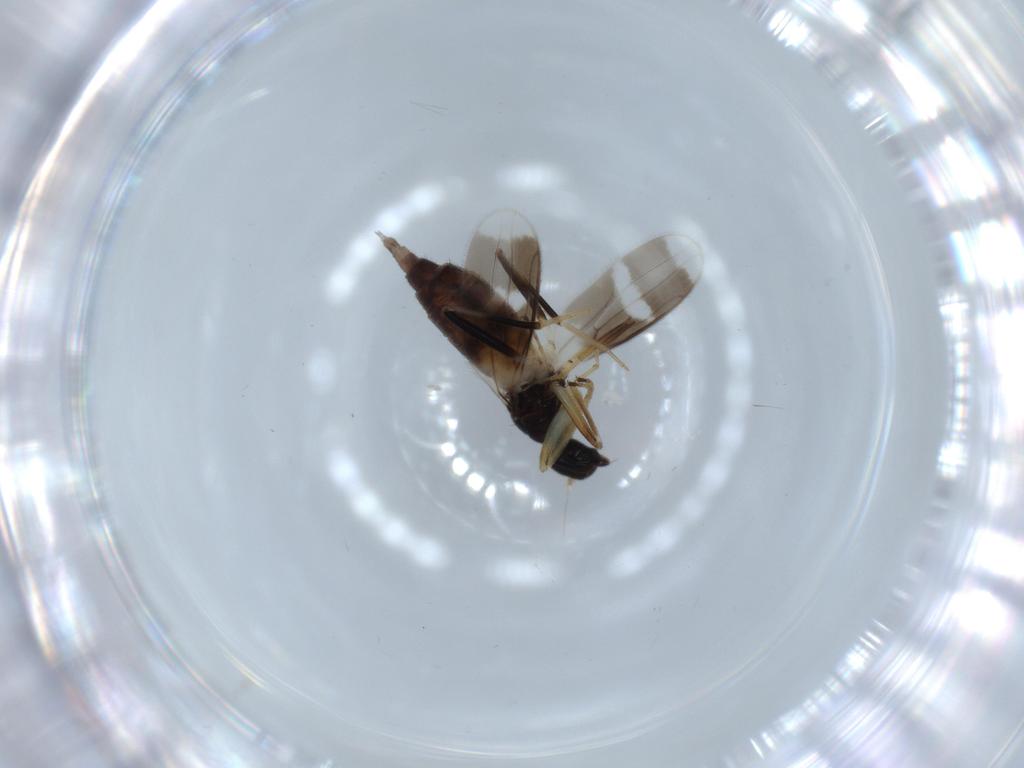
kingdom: Animalia
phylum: Arthropoda
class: Insecta
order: Diptera
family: Hybotidae
